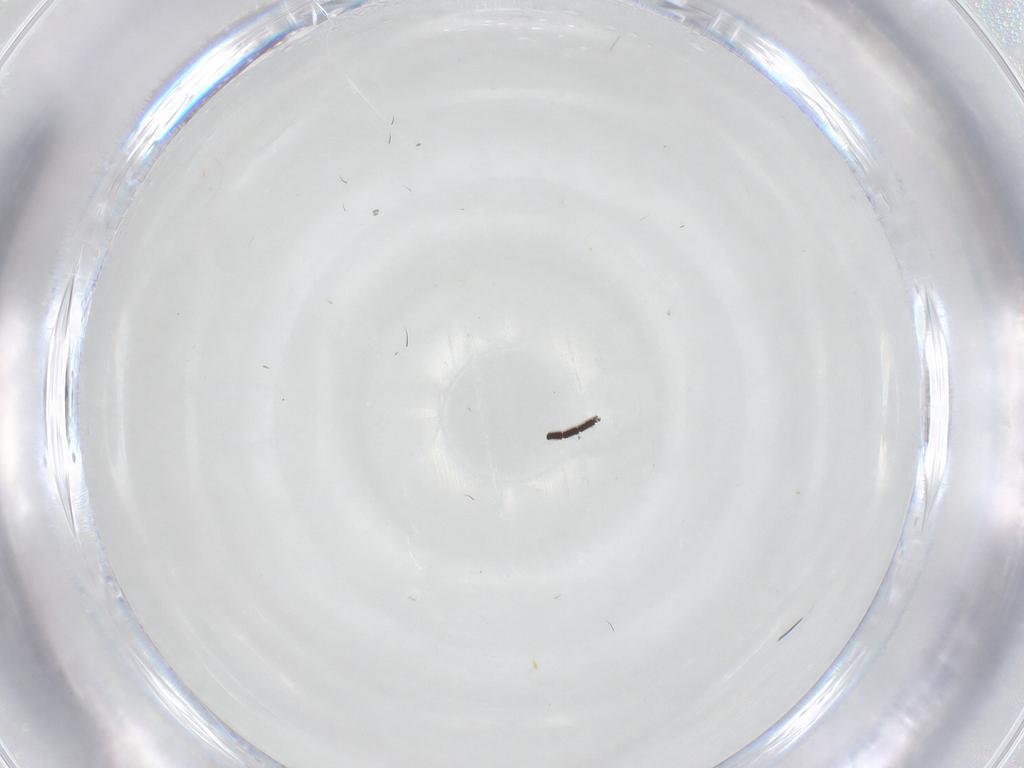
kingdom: Animalia
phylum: Arthropoda
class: Insecta
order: Diptera
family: Sciaridae
